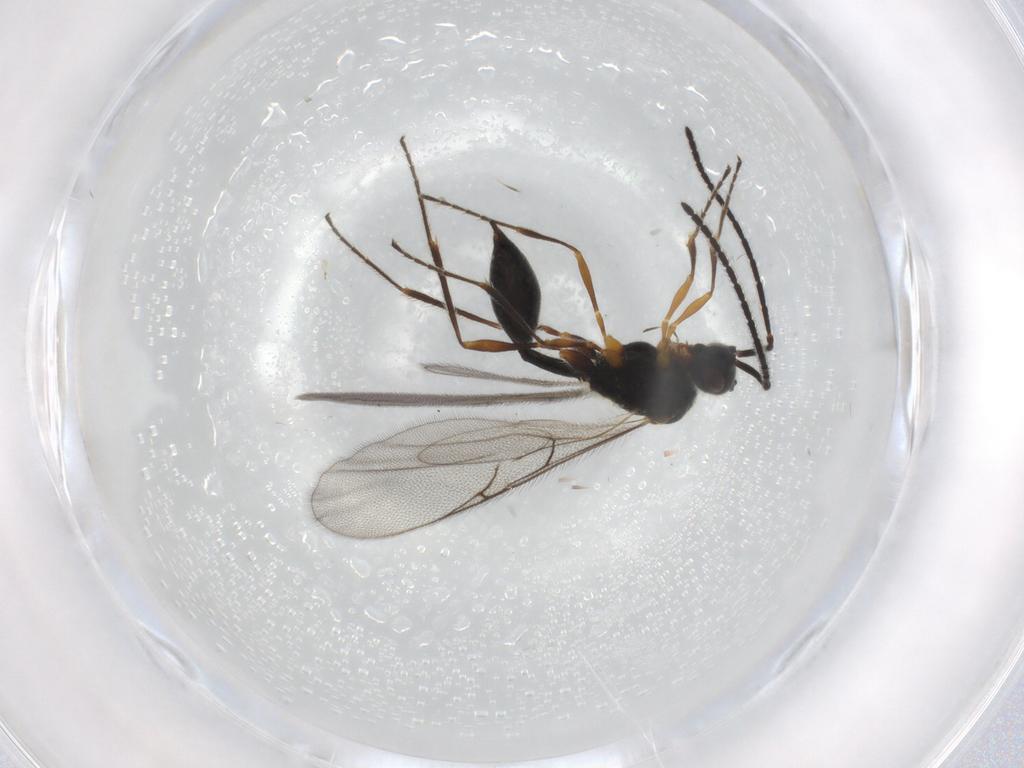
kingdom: Animalia
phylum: Arthropoda
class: Insecta
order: Hymenoptera
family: Diapriidae
